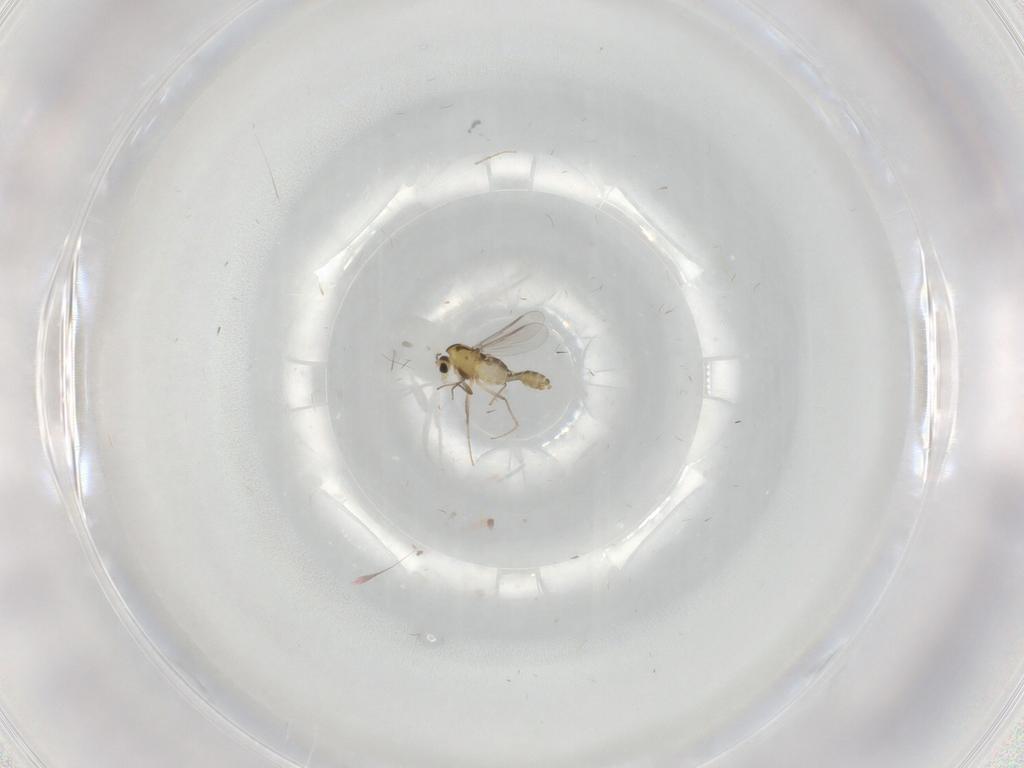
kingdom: Animalia
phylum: Arthropoda
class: Insecta
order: Diptera
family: Chironomidae
